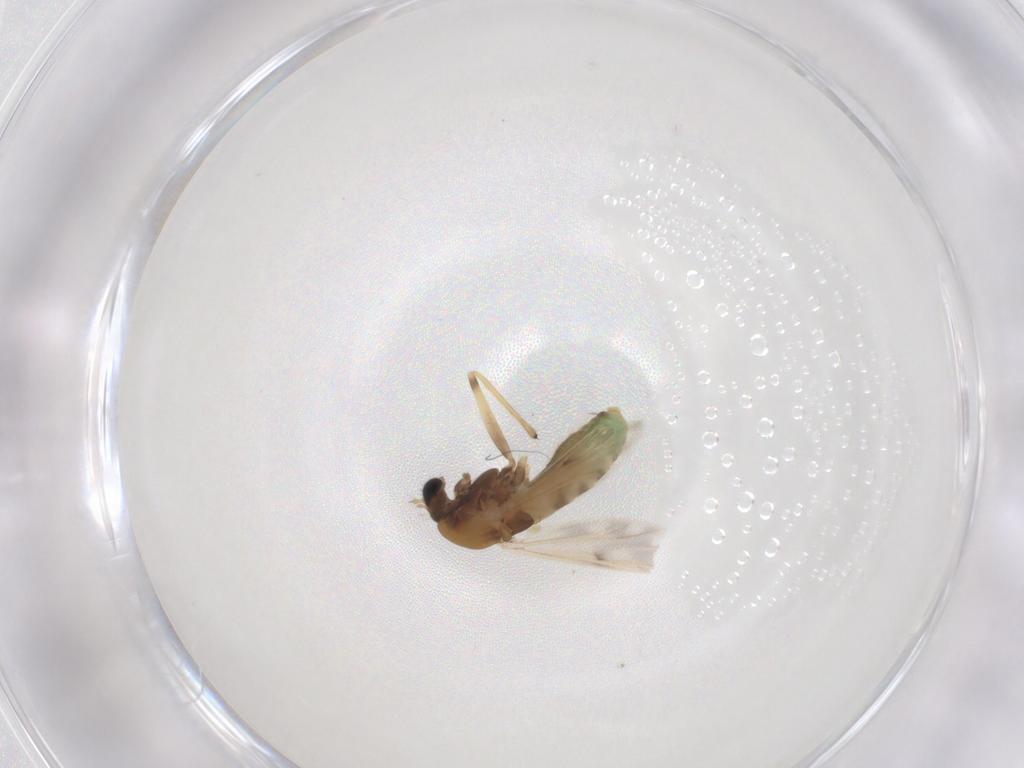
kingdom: Animalia
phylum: Arthropoda
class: Insecta
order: Diptera
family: Chironomidae
